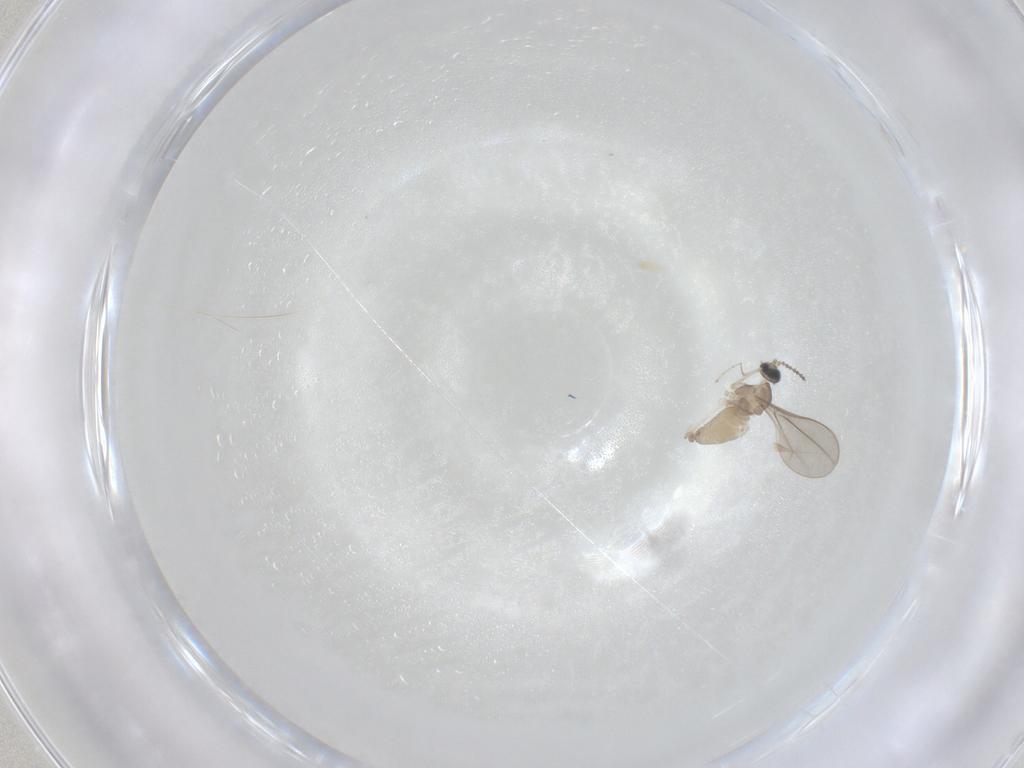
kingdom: Animalia
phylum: Arthropoda
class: Insecta
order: Diptera
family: Cecidomyiidae
